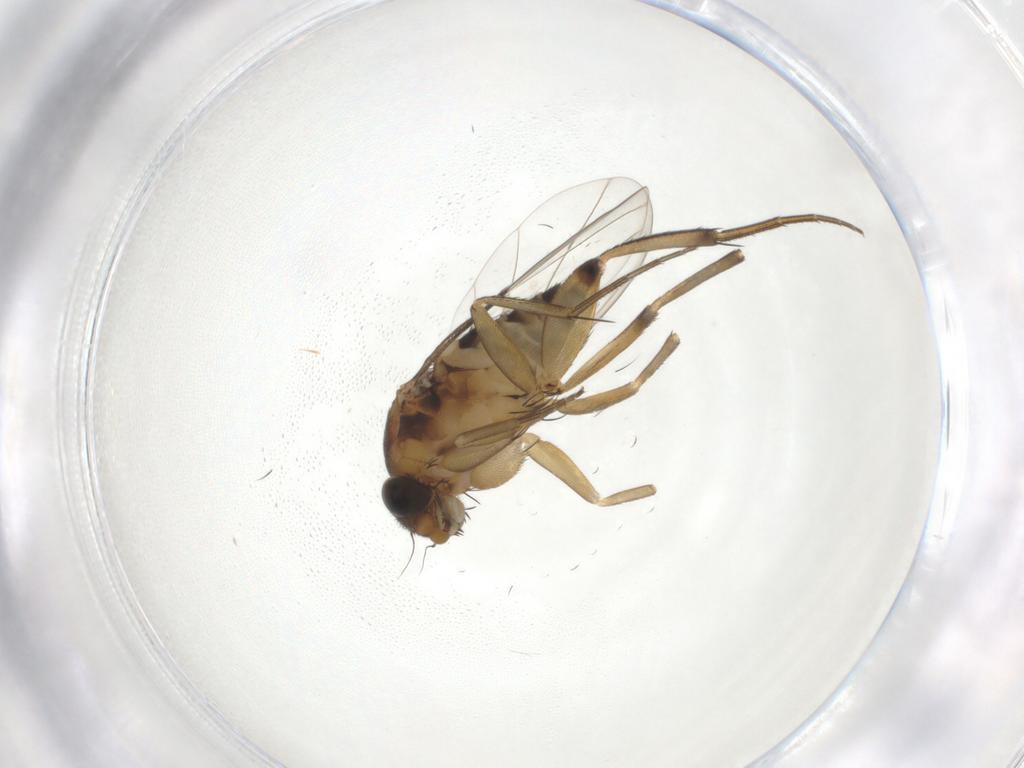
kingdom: Animalia
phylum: Arthropoda
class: Insecta
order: Diptera
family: Phoridae
